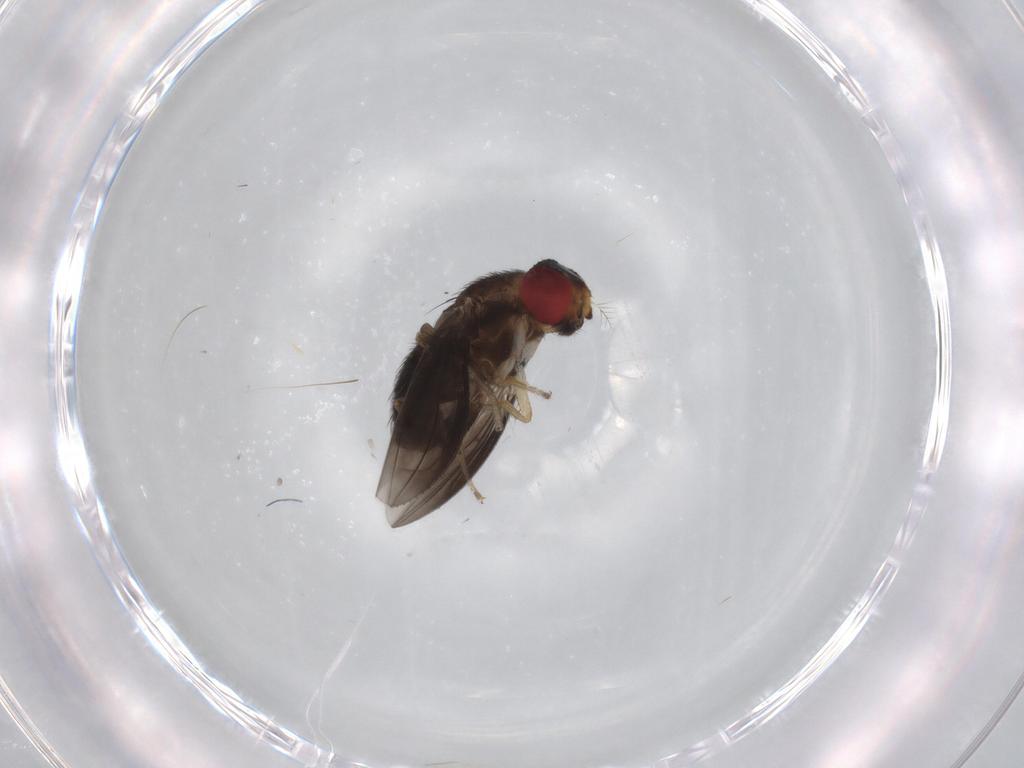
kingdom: Animalia
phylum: Arthropoda
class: Insecta
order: Diptera
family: Cecidomyiidae
